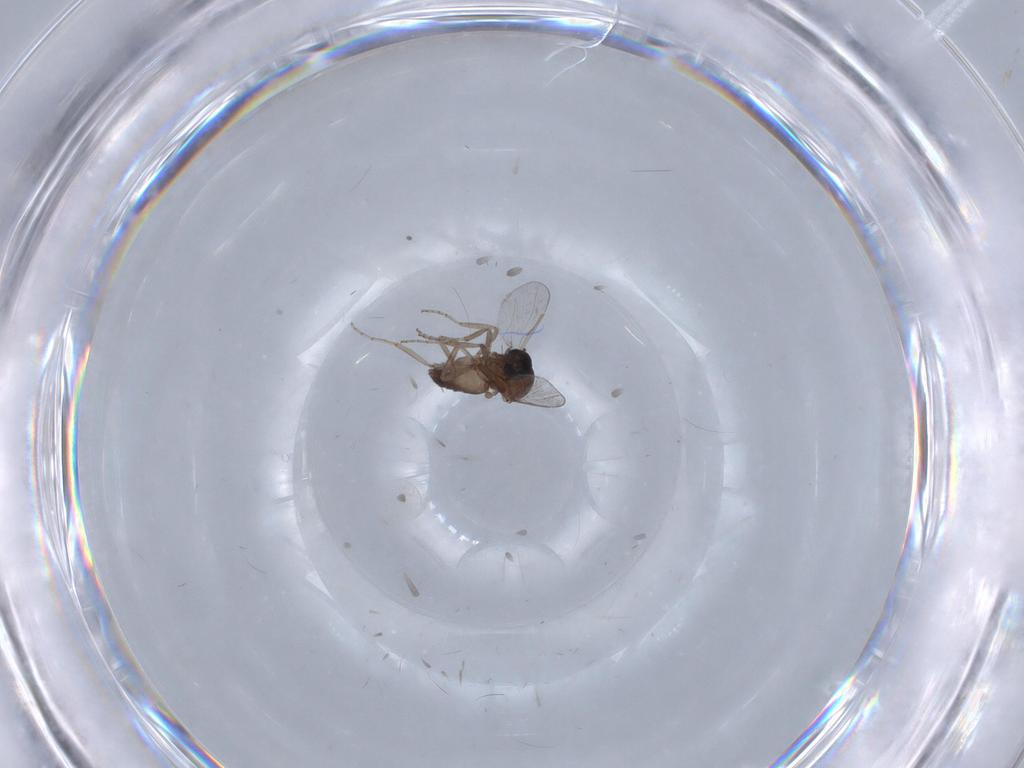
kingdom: Animalia
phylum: Arthropoda
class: Insecta
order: Diptera
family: Ceratopogonidae
